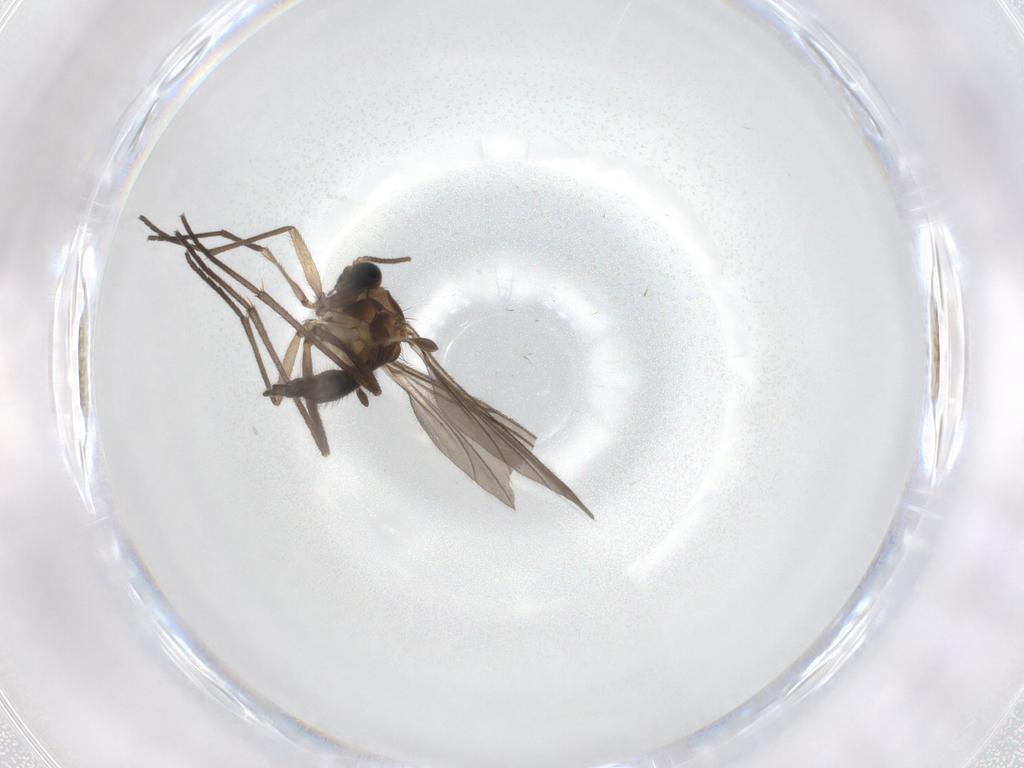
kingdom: Animalia
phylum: Arthropoda
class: Insecta
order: Diptera
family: Sciaridae
